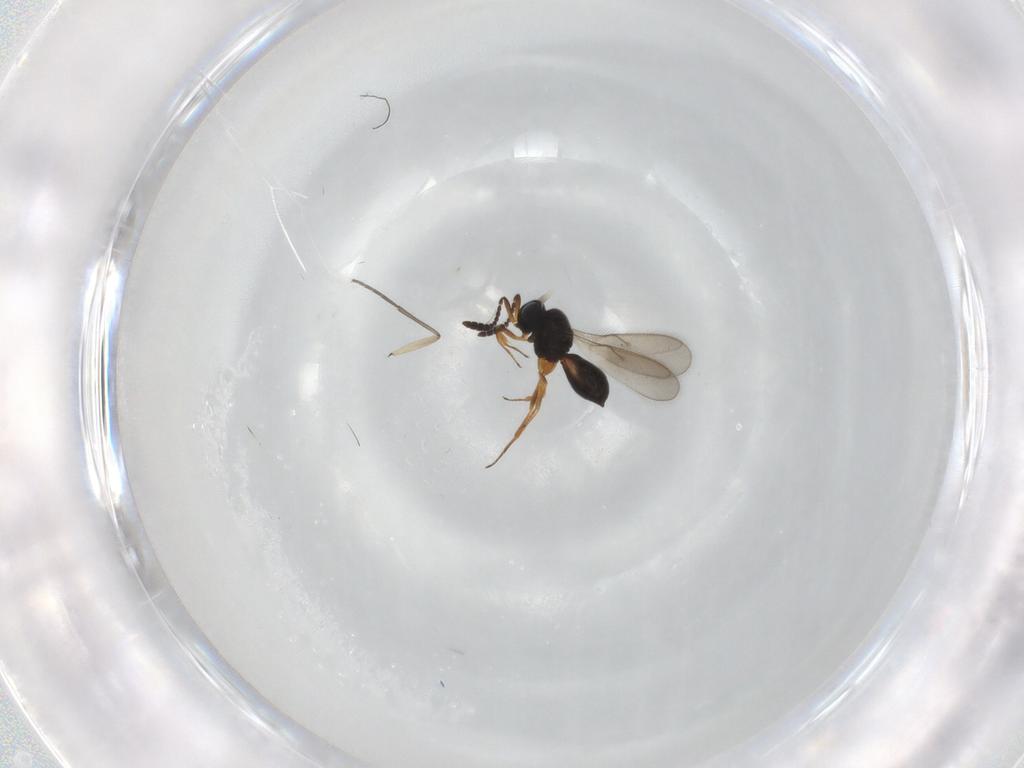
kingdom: Animalia
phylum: Arthropoda
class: Insecta
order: Hymenoptera
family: Scelionidae
